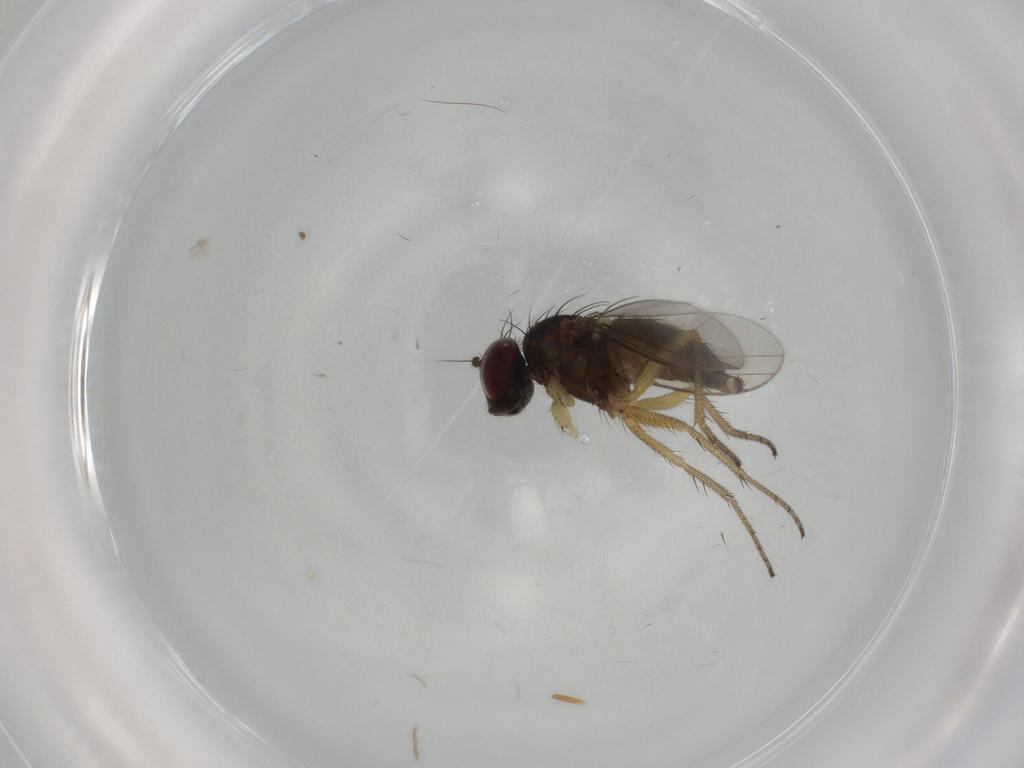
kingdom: Animalia
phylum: Arthropoda
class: Insecta
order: Diptera
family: Dolichopodidae
